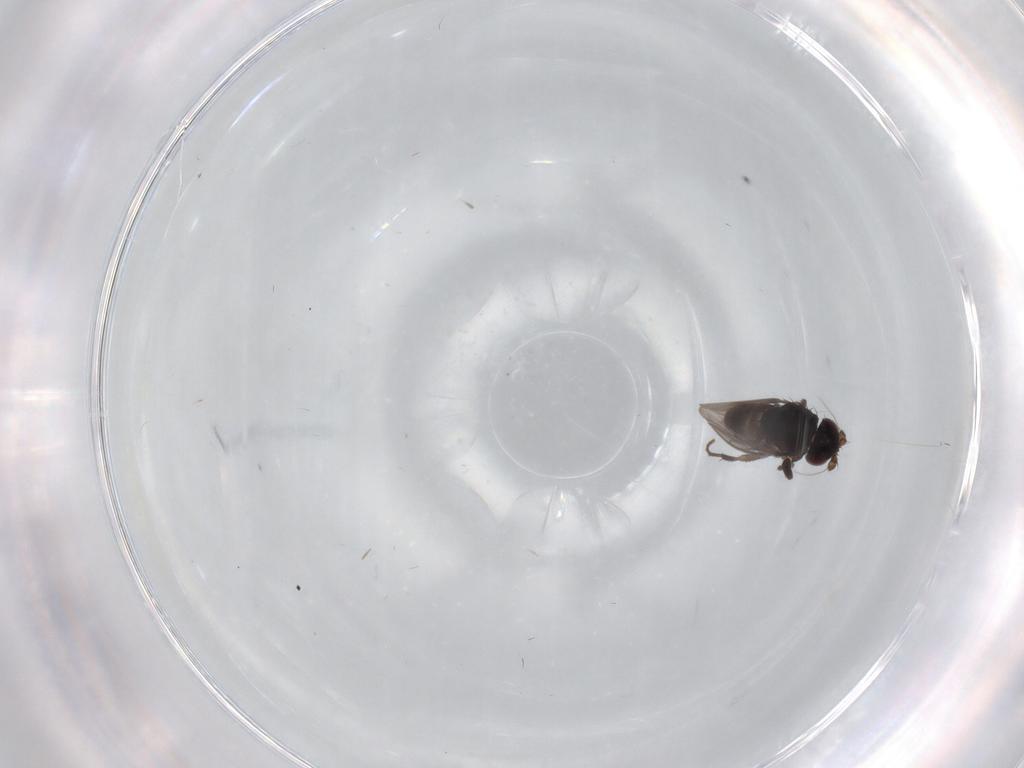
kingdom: Animalia
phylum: Arthropoda
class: Insecta
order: Diptera
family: Sphaeroceridae
